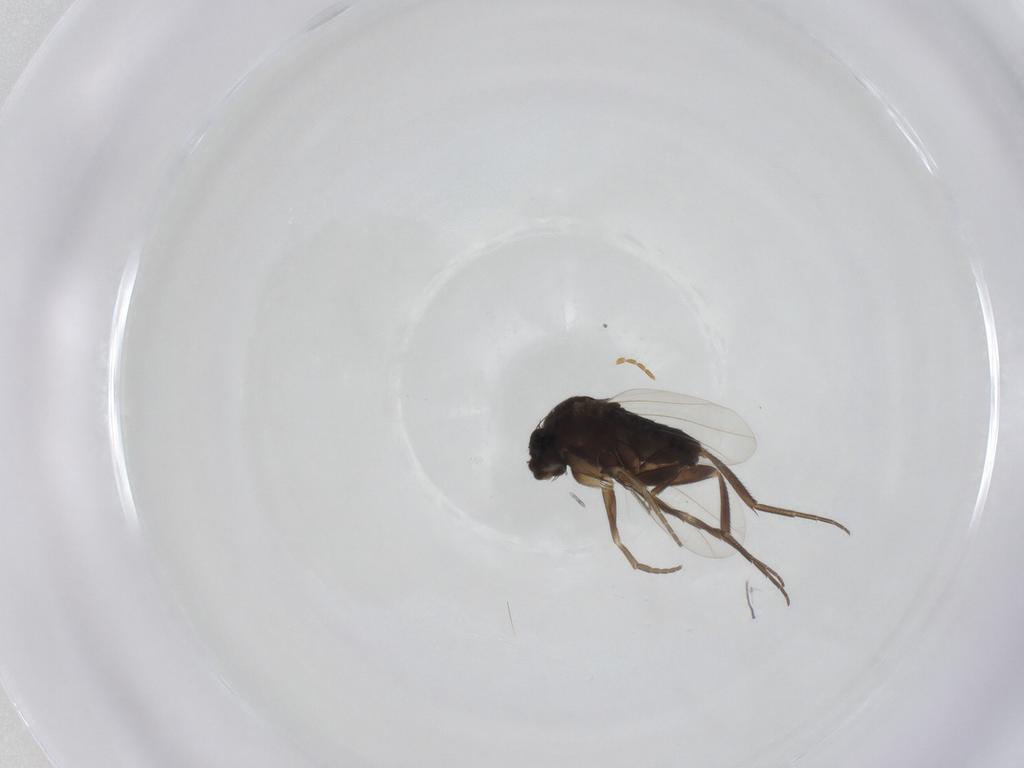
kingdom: Animalia
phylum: Arthropoda
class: Insecta
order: Diptera
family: Phoridae
